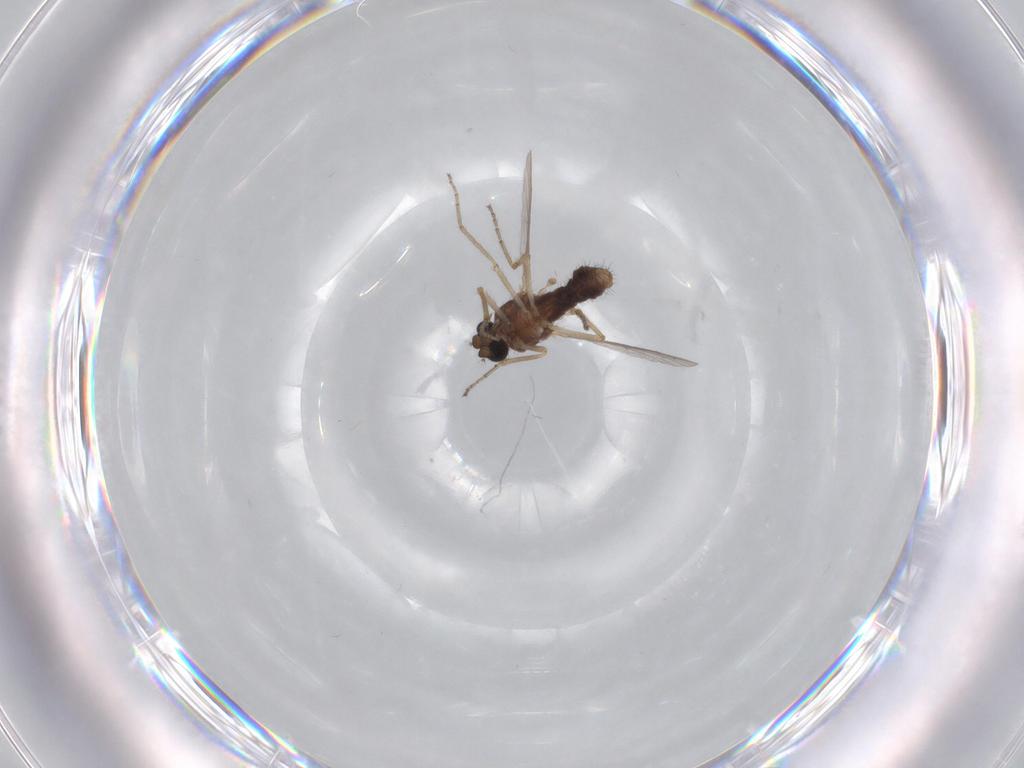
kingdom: Animalia
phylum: Arthropoda
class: Insecta
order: Diptera
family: Ceratopogonidae
